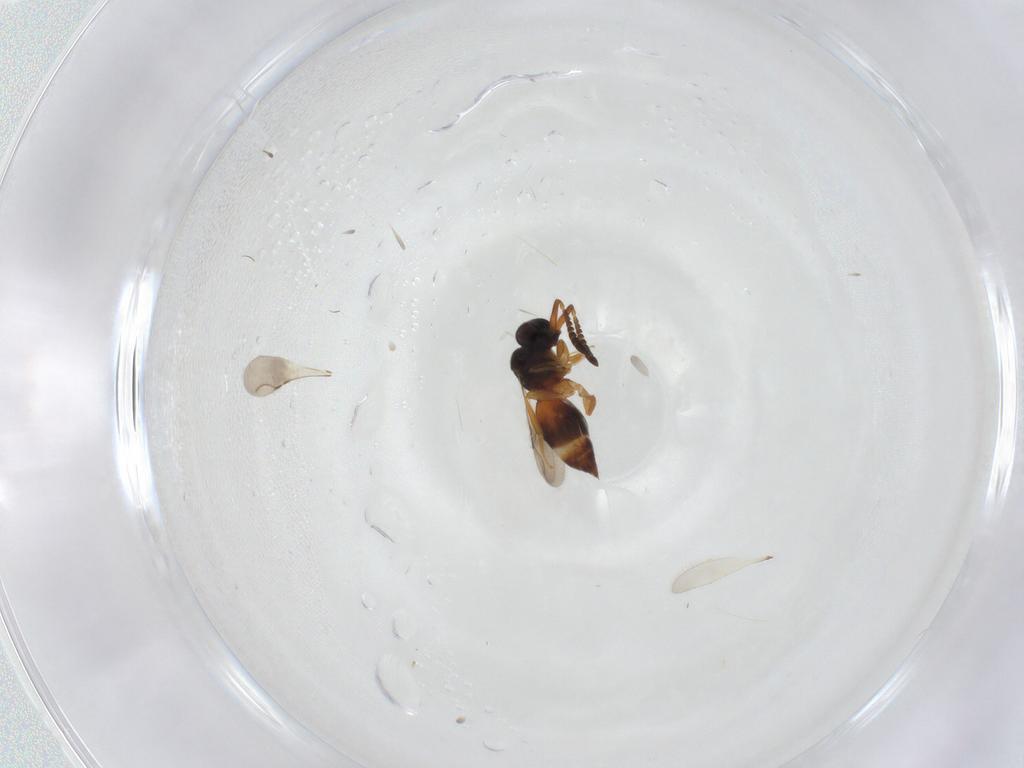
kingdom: Animalia
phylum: Arthropoda
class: Insecta
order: Hymenoptera
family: Ceraphronidae
